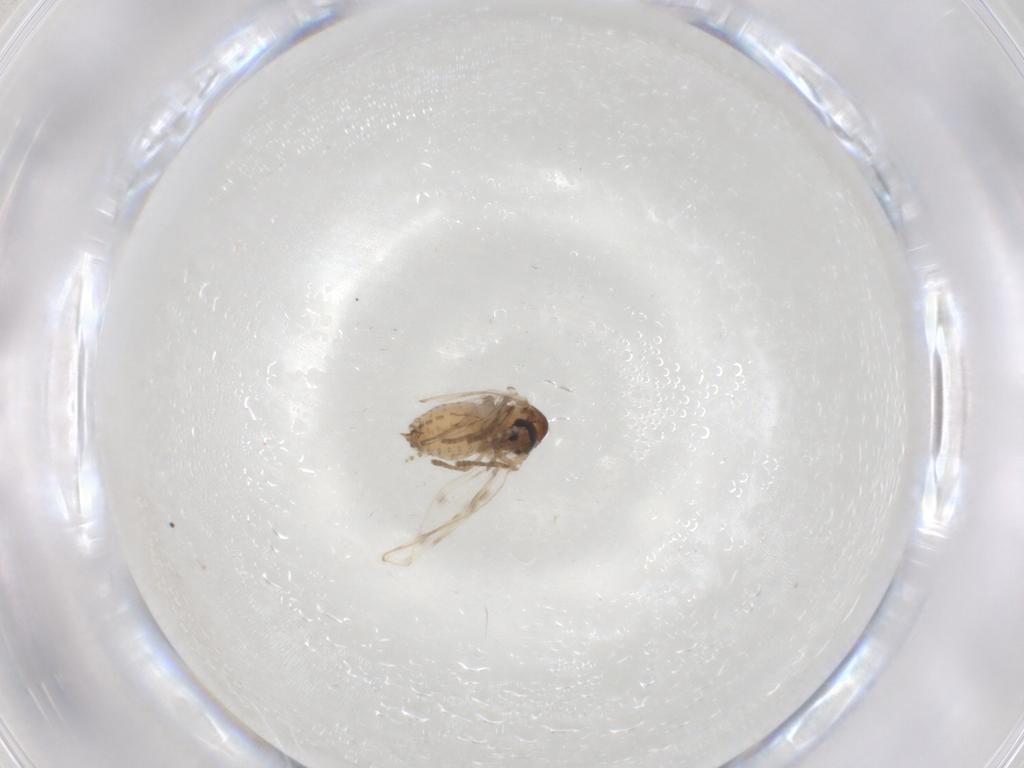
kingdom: Animalia
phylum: Arthropoda
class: Insecta
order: Diptera
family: Psychodidae
